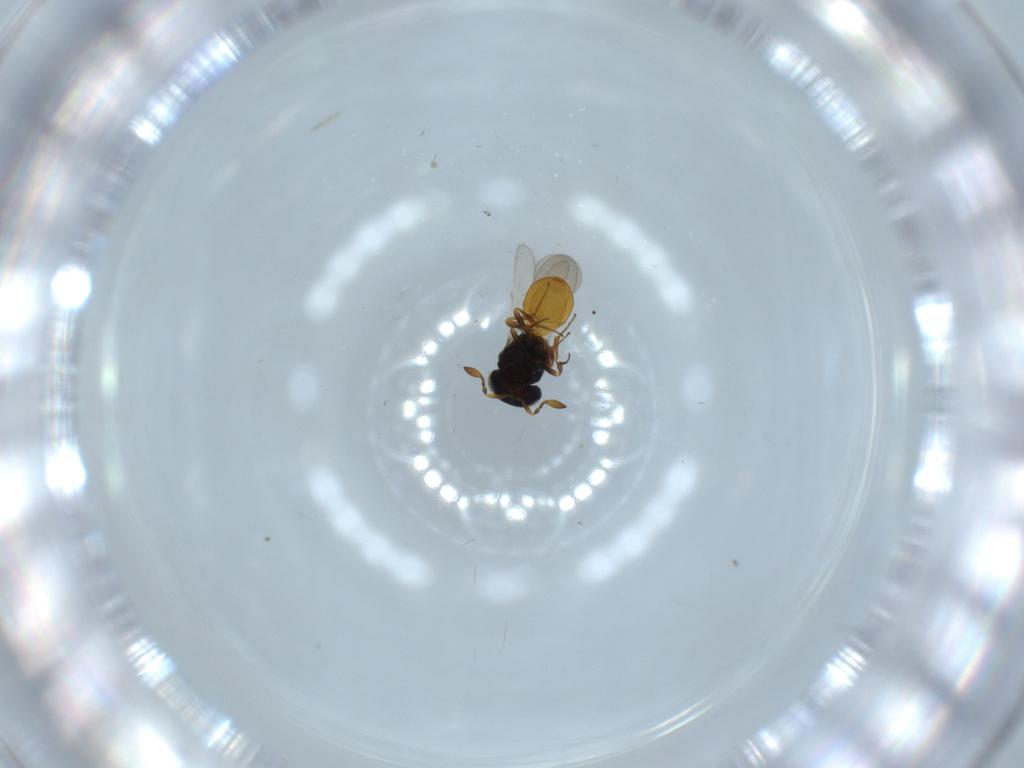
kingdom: Animalia
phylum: Arthropoda
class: Insecta
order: Hymenoptera
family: Scelionidae
